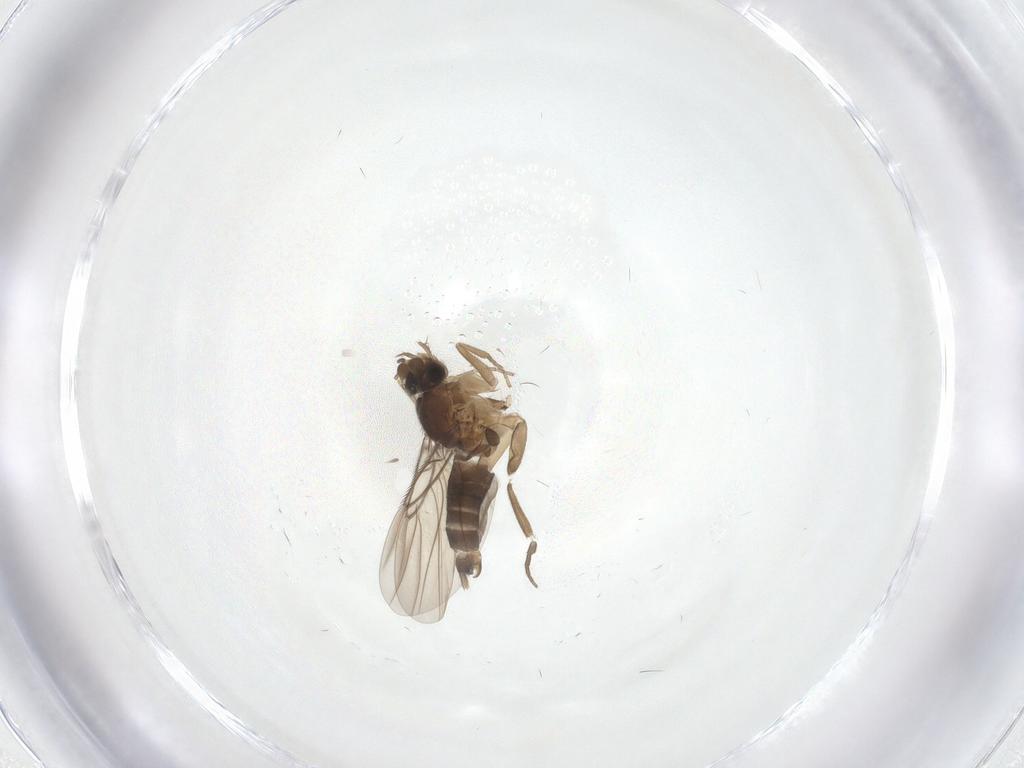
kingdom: Animalia
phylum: Arthropoda
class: Insecta
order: Diptera
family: Phoridae
